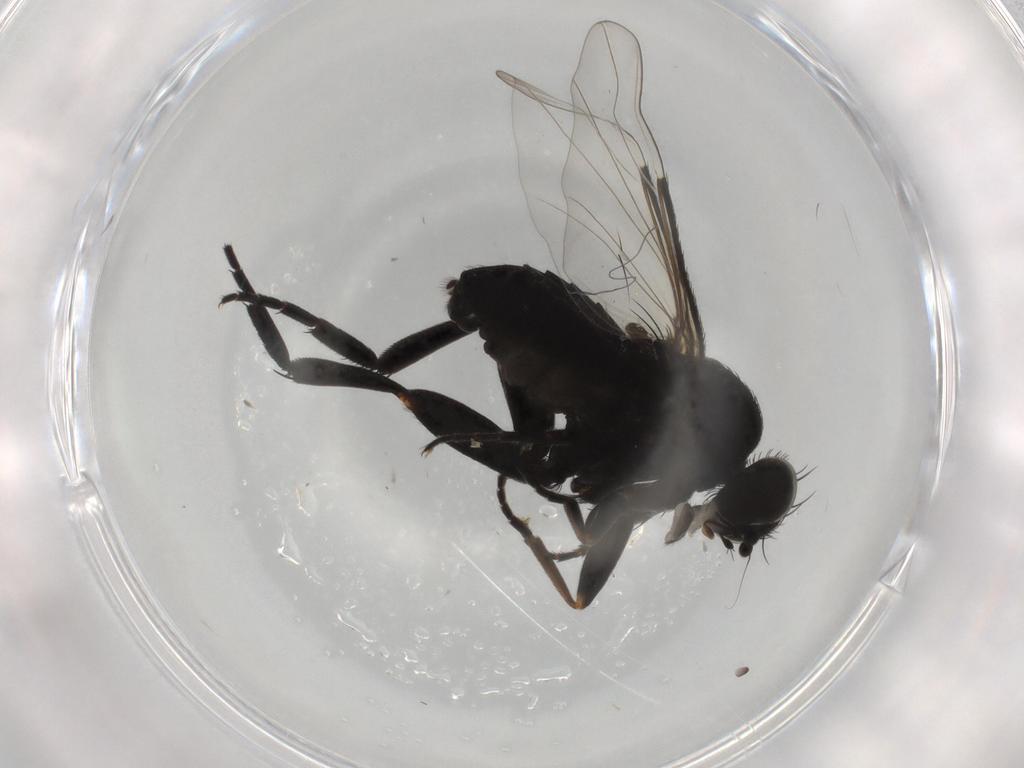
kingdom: Animalia
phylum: Arthropoda
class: Insecta
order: Diptera
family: Phoridae
